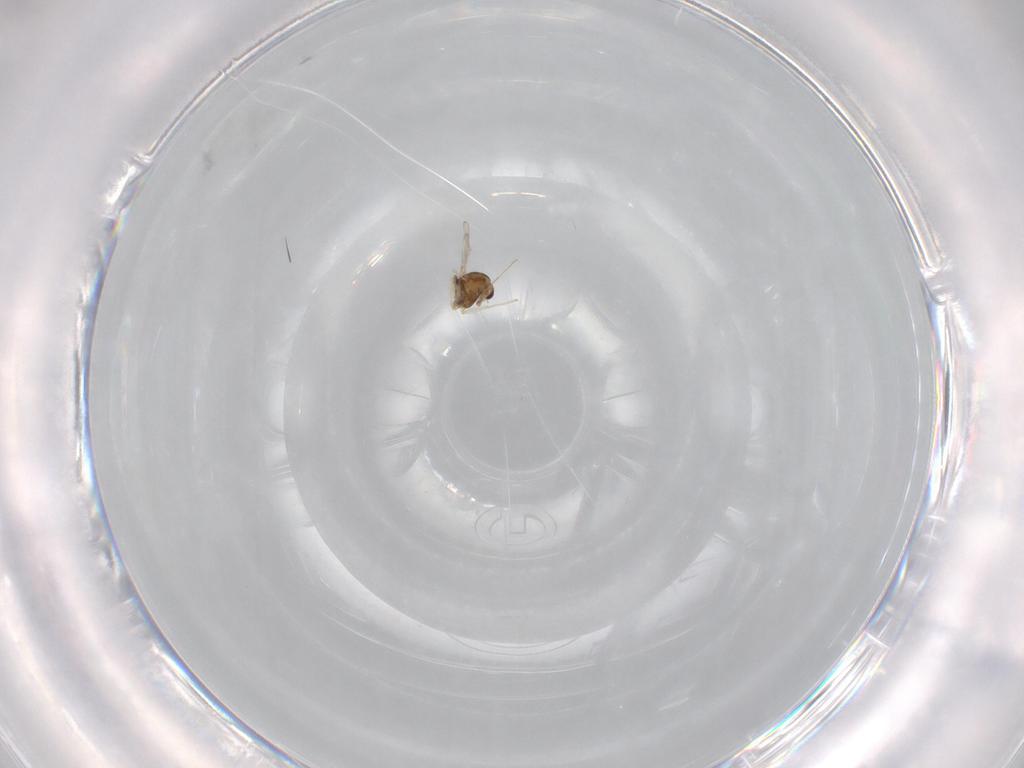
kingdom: Animalia
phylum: Arthropoda
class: Insecta
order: Diptera
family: Chironomidae
